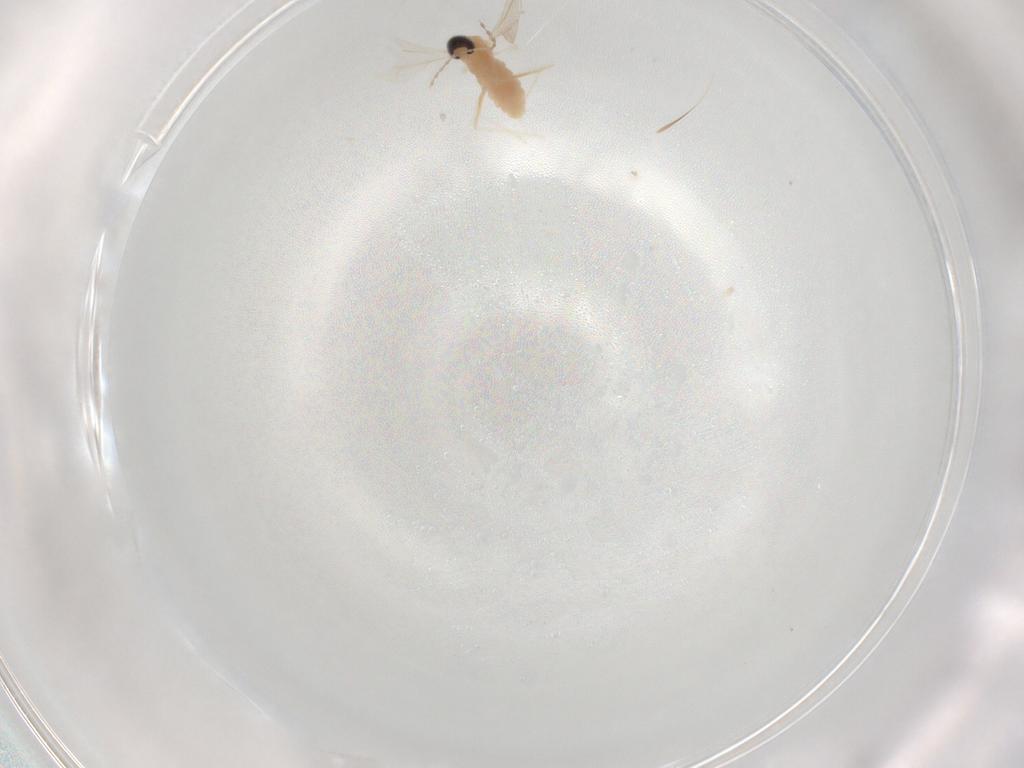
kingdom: Animalia
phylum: Arthropoda
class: Insecta
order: Diptera
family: Cecidomyiidae
